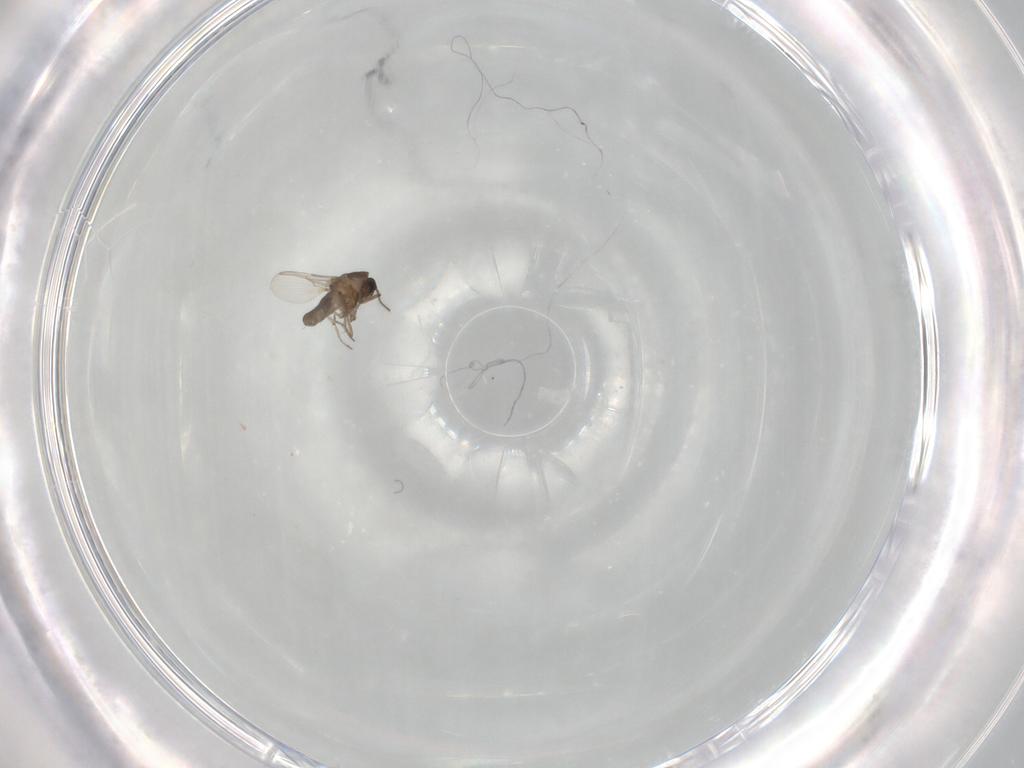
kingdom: Animalia
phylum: Arthropoda
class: Insecta
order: Diptera
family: Ceratopogonidae
